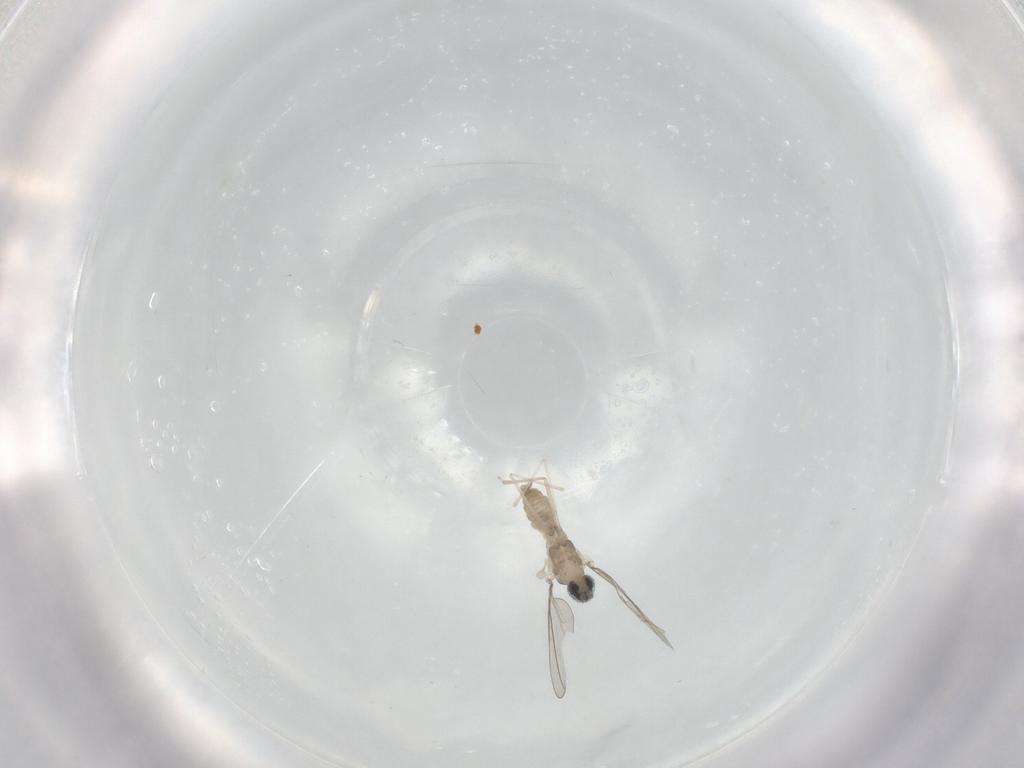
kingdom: Animalia
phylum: Arthropoda
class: Insecta
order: Diptera
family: Cecidomyiidae
